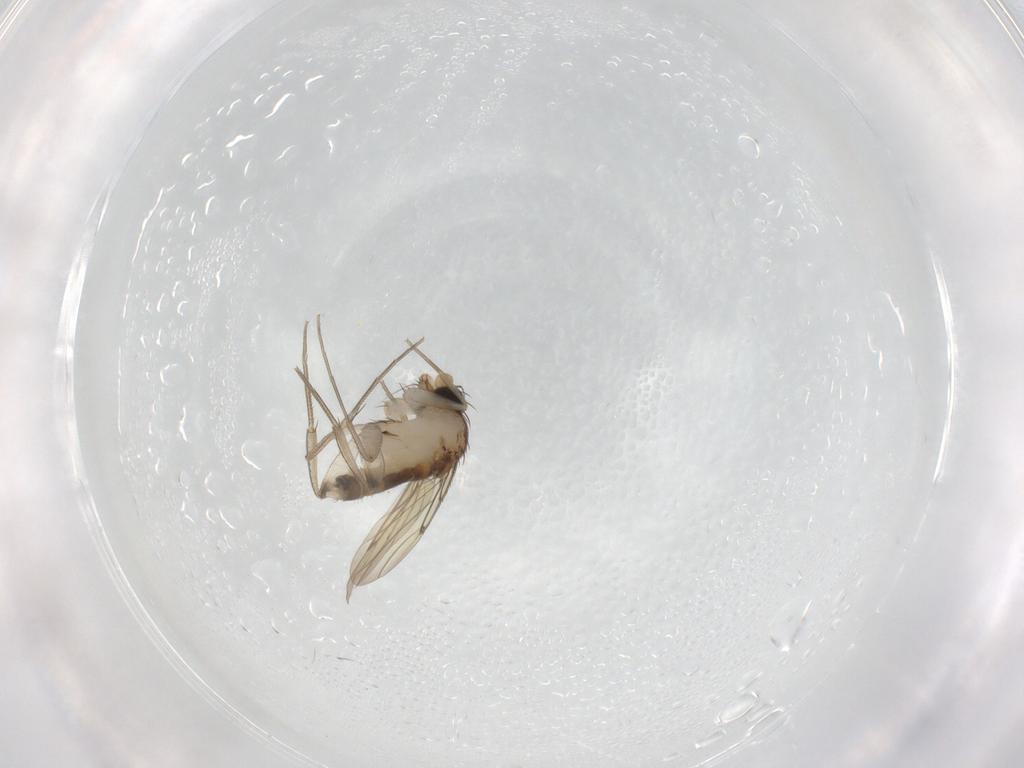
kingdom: Animalia
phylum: Arthropoda
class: Insecta
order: Diptera
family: Phoridae
